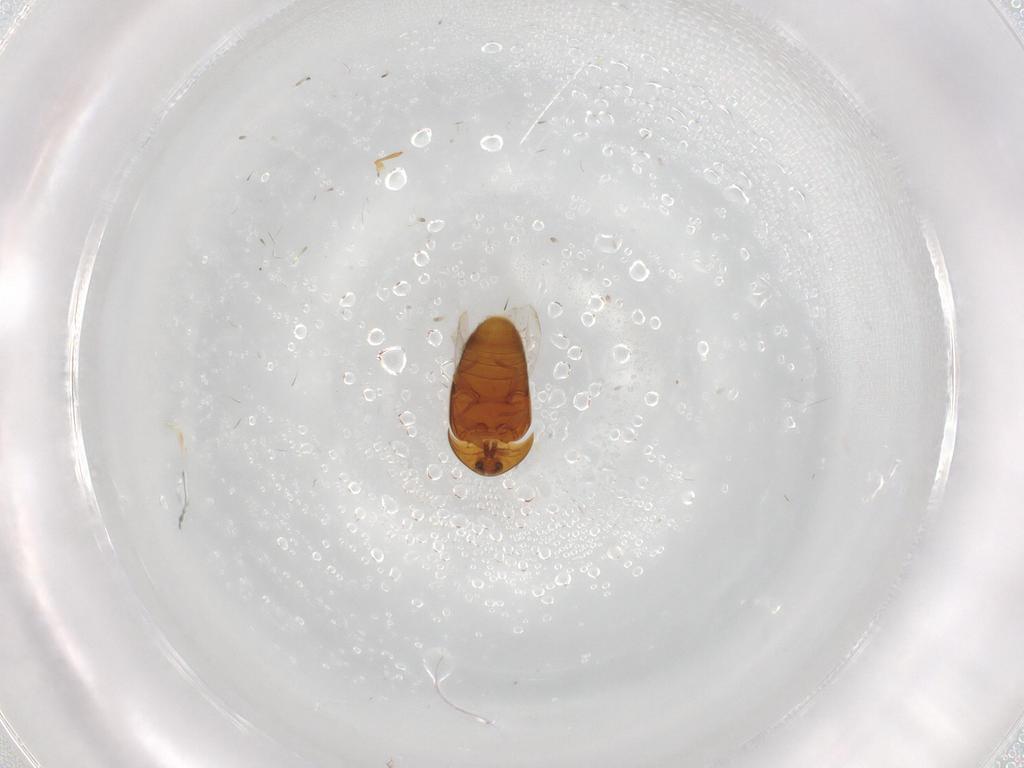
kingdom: Animalia
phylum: Arthropoda
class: Insecta
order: Coleoptera
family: Corylophidae
